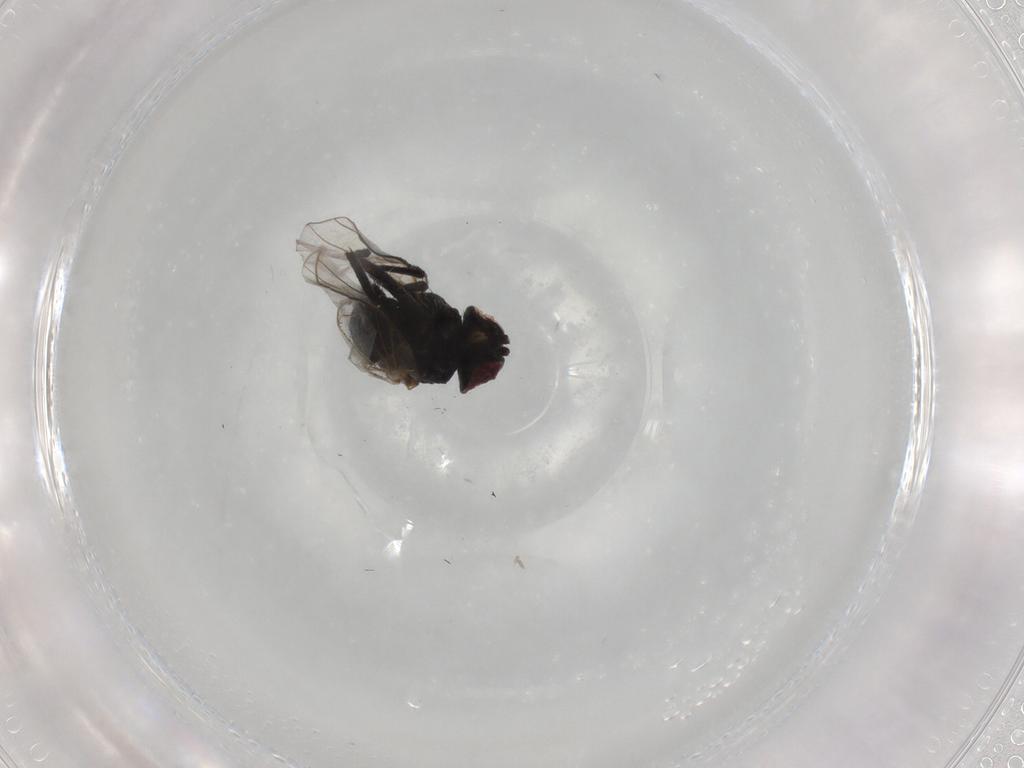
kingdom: Animalia
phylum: Arthropoda
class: Insecta
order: Diptera
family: Agromyzidae
